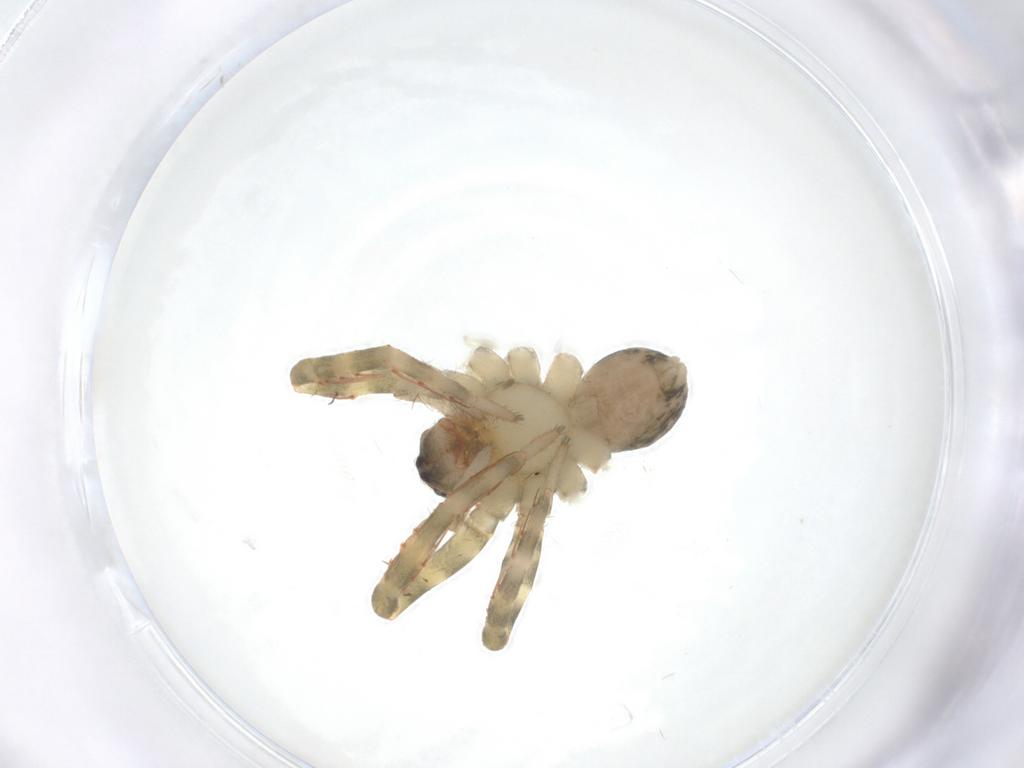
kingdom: Animalia
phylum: Arthropoda
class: Arachnida
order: Araneae
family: Ctenidae
